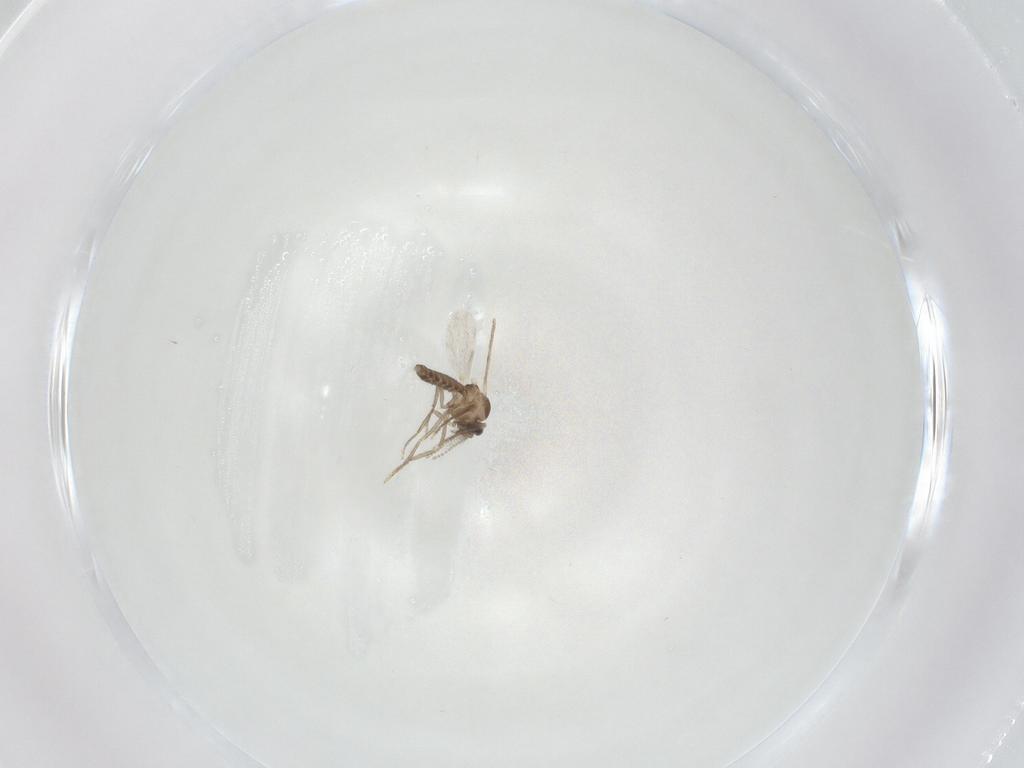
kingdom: Animalia
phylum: Arthropoda
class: Insecta
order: Diptera
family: Ceratopogonidae
